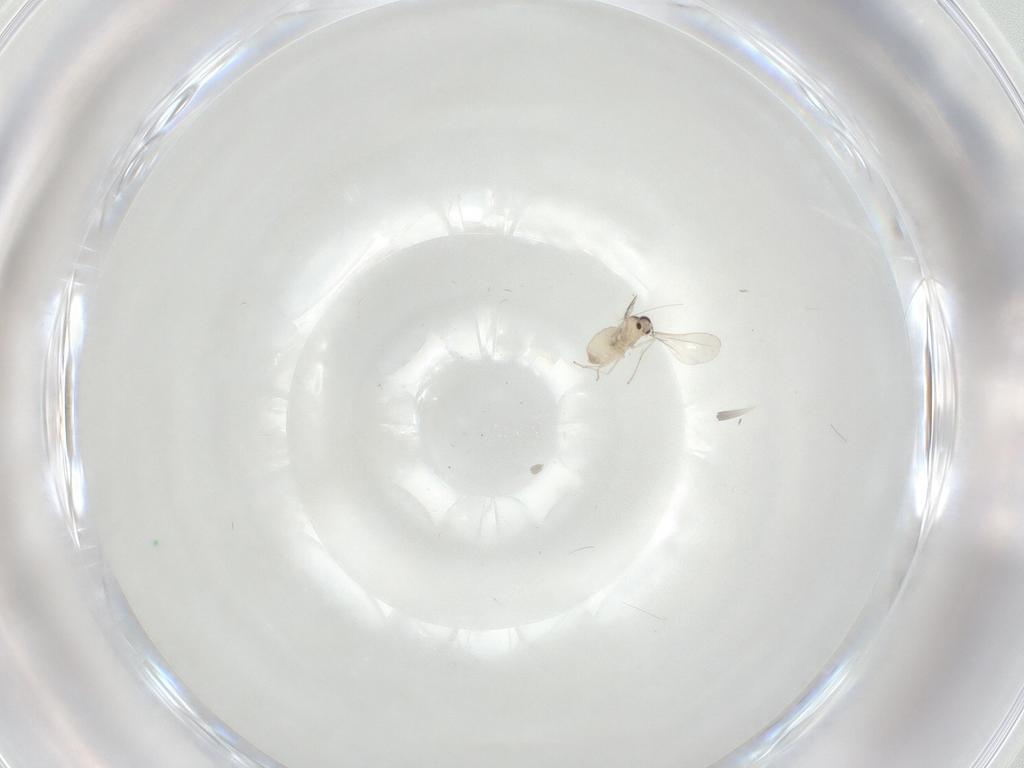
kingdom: Animalia
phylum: Arthropoda
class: Insecta
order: Diptera
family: Cecidomyiidae
